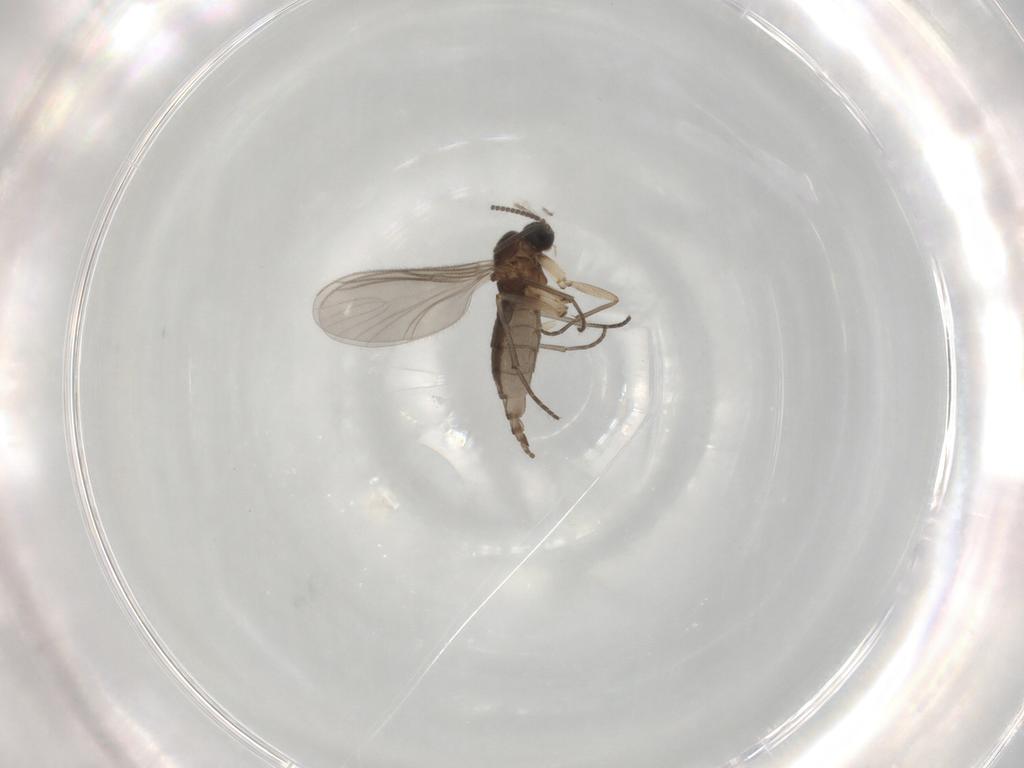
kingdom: Animalia
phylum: Arthropoda
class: Insecta
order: Diptera
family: Sciaridae
